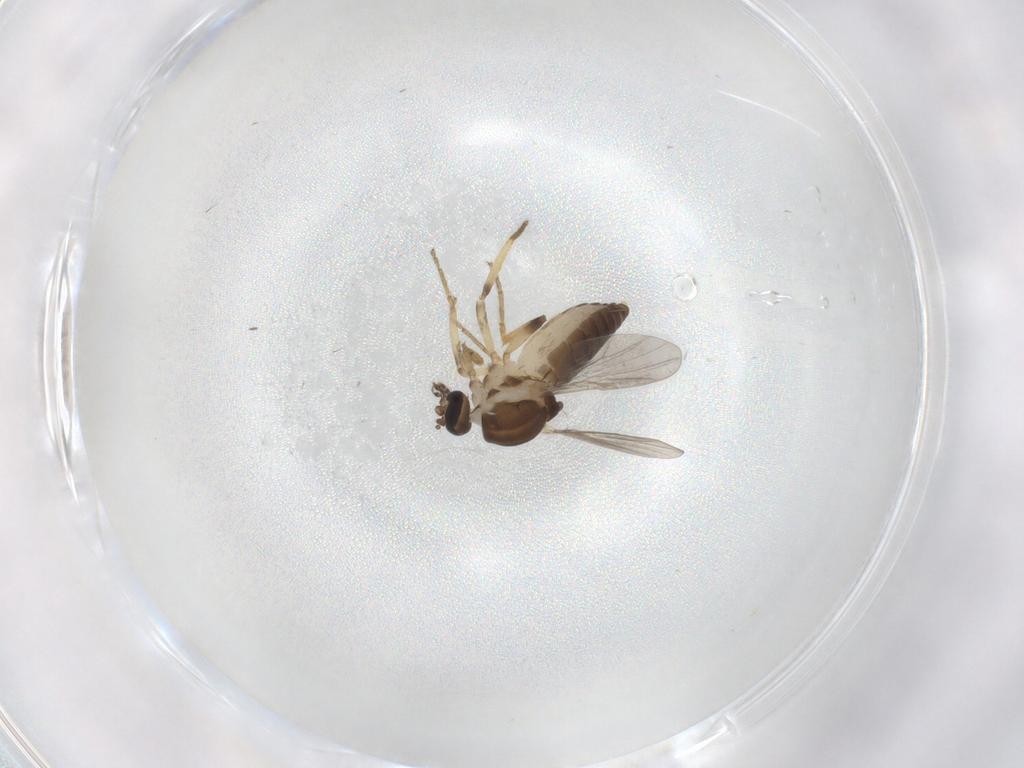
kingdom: Animalia
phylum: Arthropoda
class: Insecta
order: Diptera
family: Ceratopogonidae
